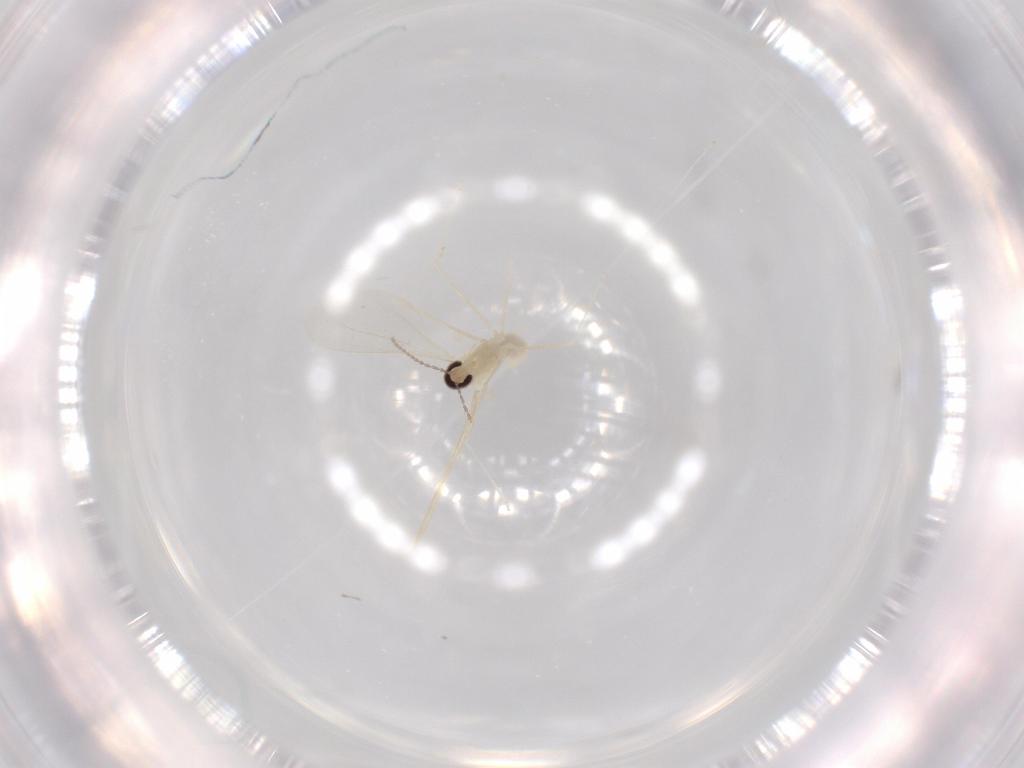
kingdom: Animalia
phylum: Arthropoda
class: Insecta
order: Diptera
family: Cecidomyiidae
